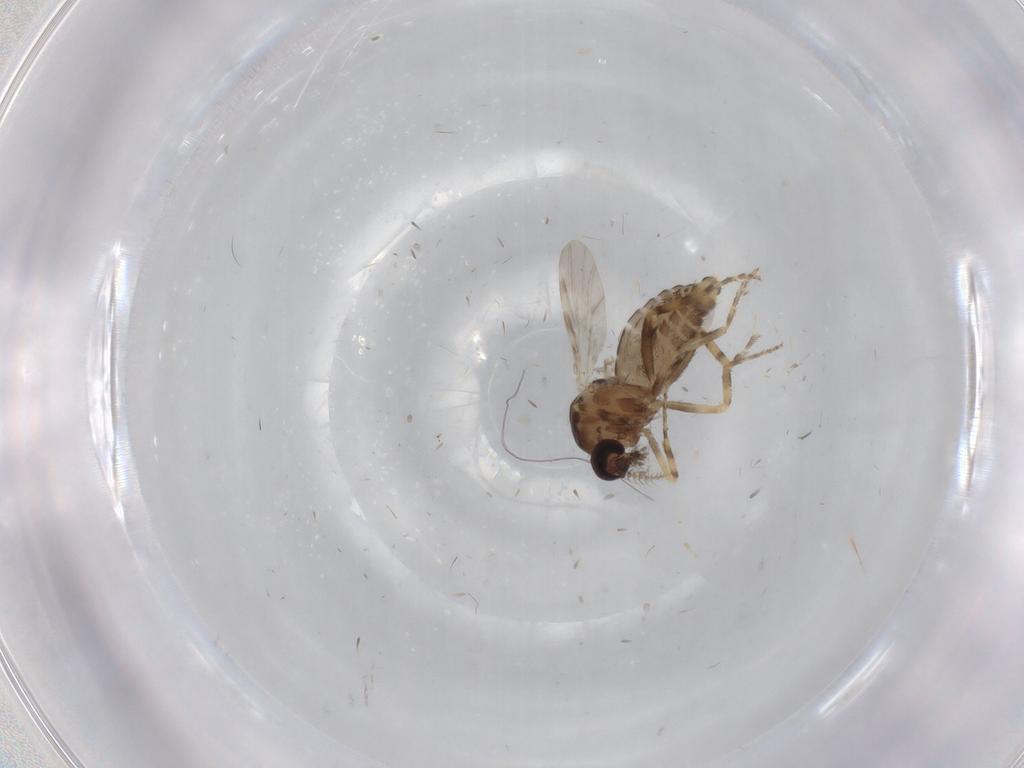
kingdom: Animalia
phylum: Arthropoda
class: Insecta
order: Diptera
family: Ceratopogonidae
